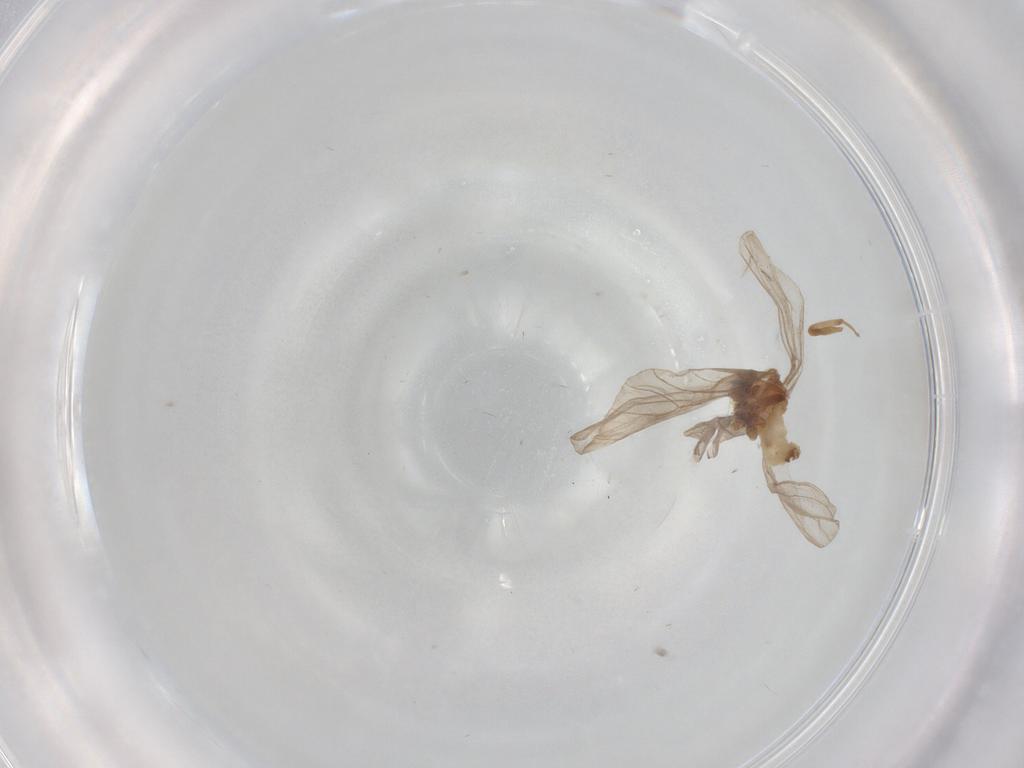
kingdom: Animalia
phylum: Arthropoda
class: Insecta
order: Neuroptera
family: Coniopterygidae
